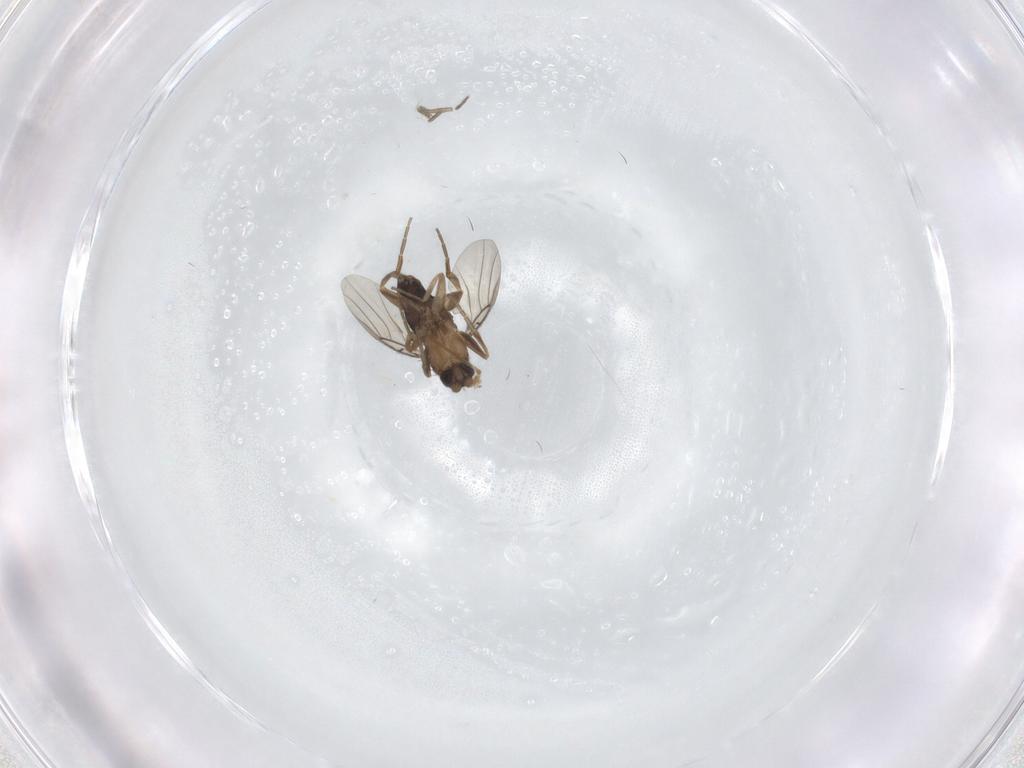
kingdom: Animalia
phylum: Arthropoda
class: Insecta
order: Diptera
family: Phoridae
